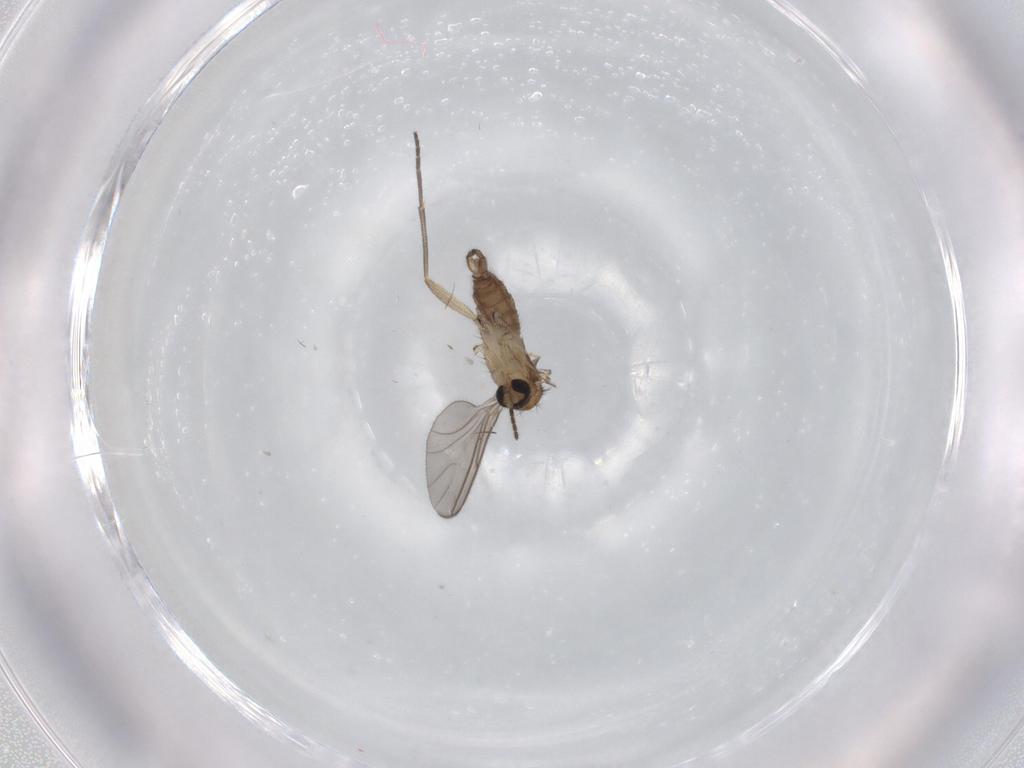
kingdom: Animalia
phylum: Arthropoda
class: Insecta
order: Diptera
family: Sciaridae
